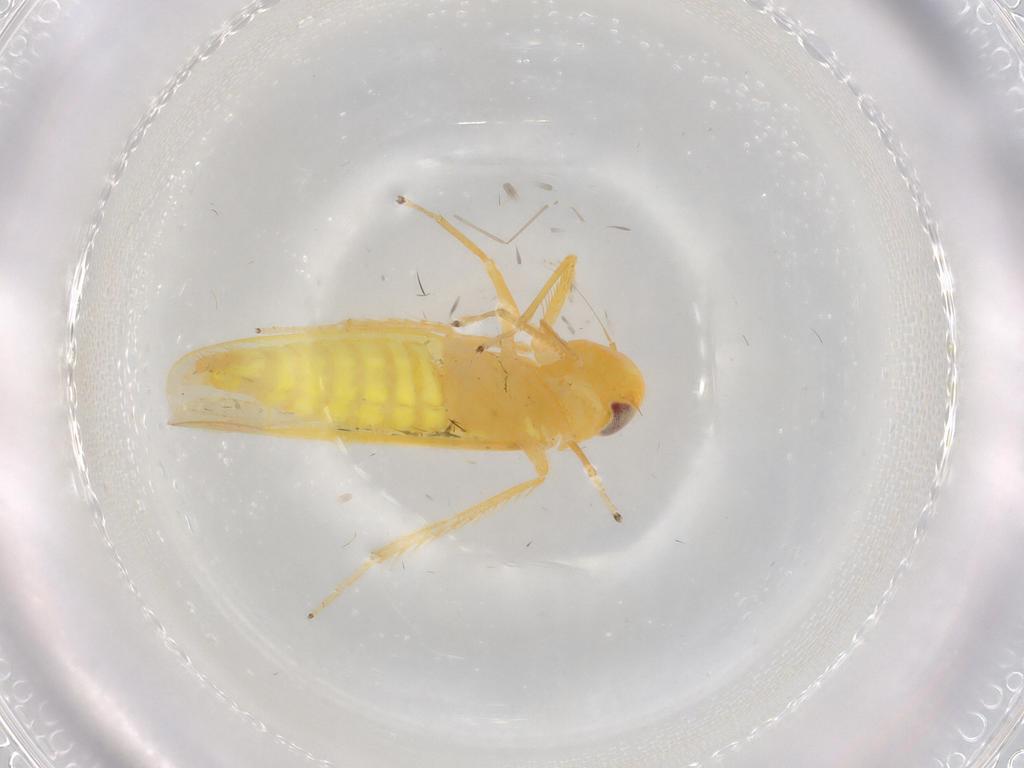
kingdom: Animalia
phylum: Arthropoda
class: Insecta
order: Hemiptera
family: Cicadellidae
